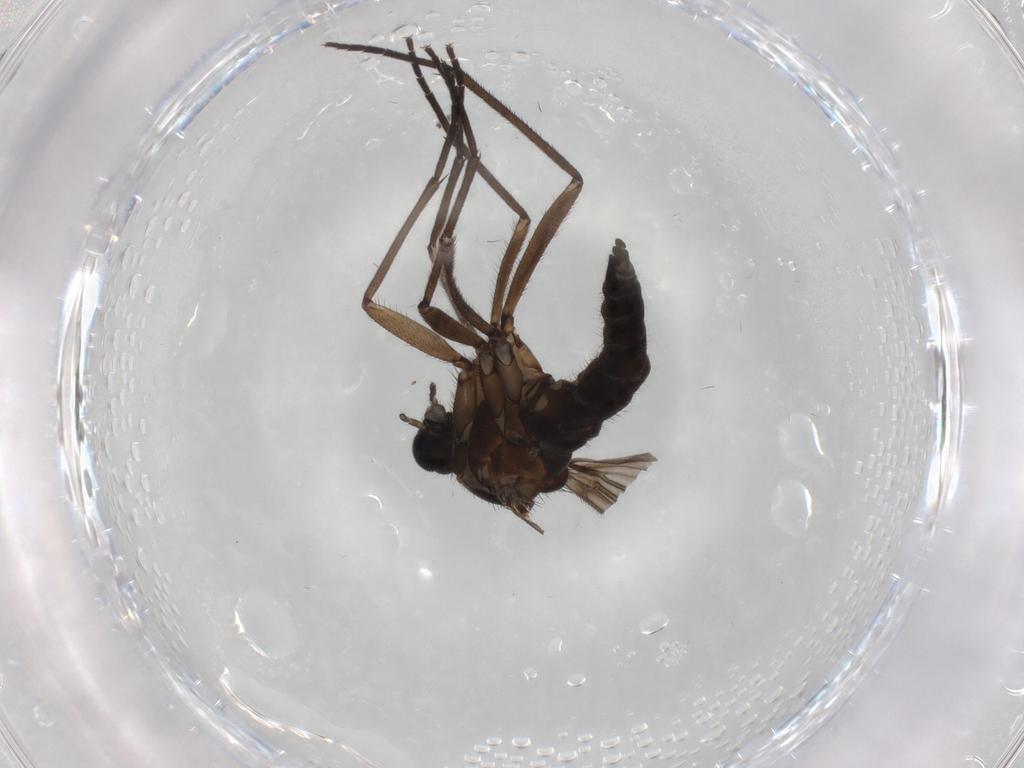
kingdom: Animalia
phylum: Arthropoda
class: Insecta
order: Diptera
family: Sciaridae
